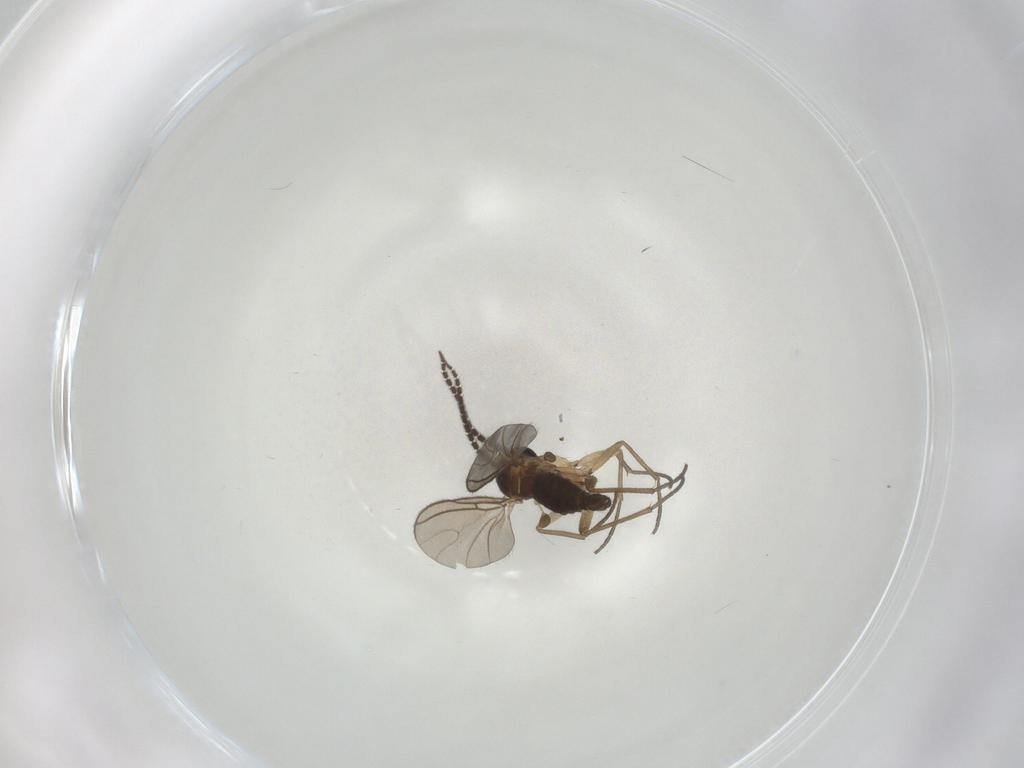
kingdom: Animalia
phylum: Arthropoda
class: Insecta
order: Diptera
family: Sciaridae
